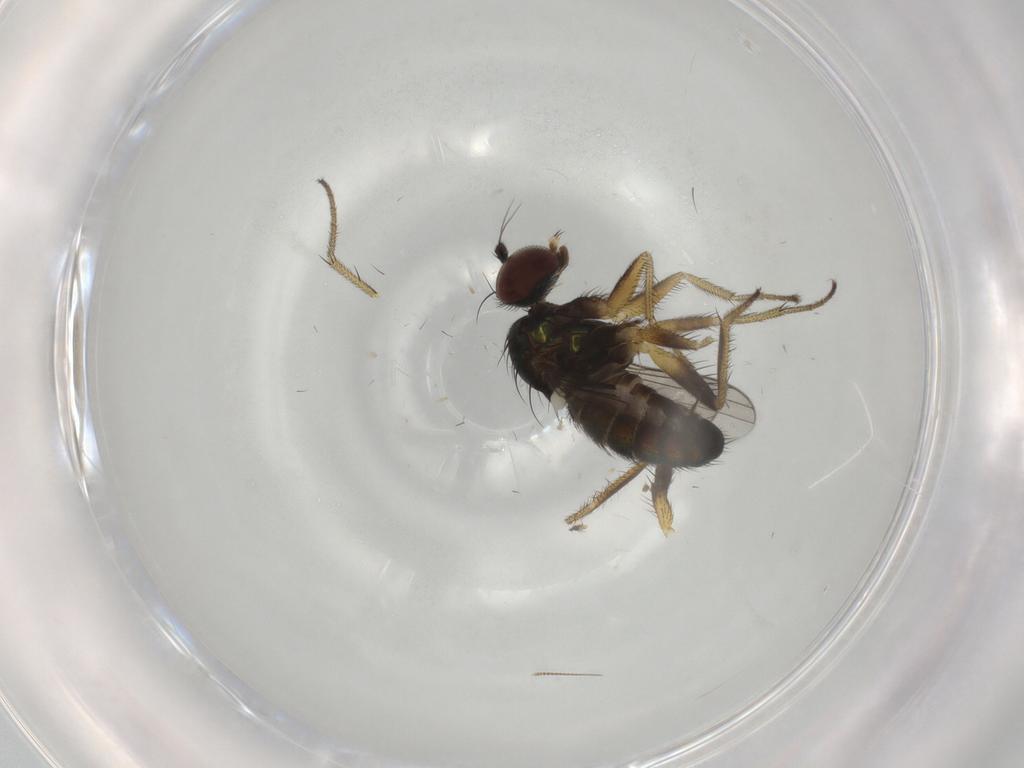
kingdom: Animalia
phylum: Arthropoda
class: Insecta
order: Diptera
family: Dolichopodidae
